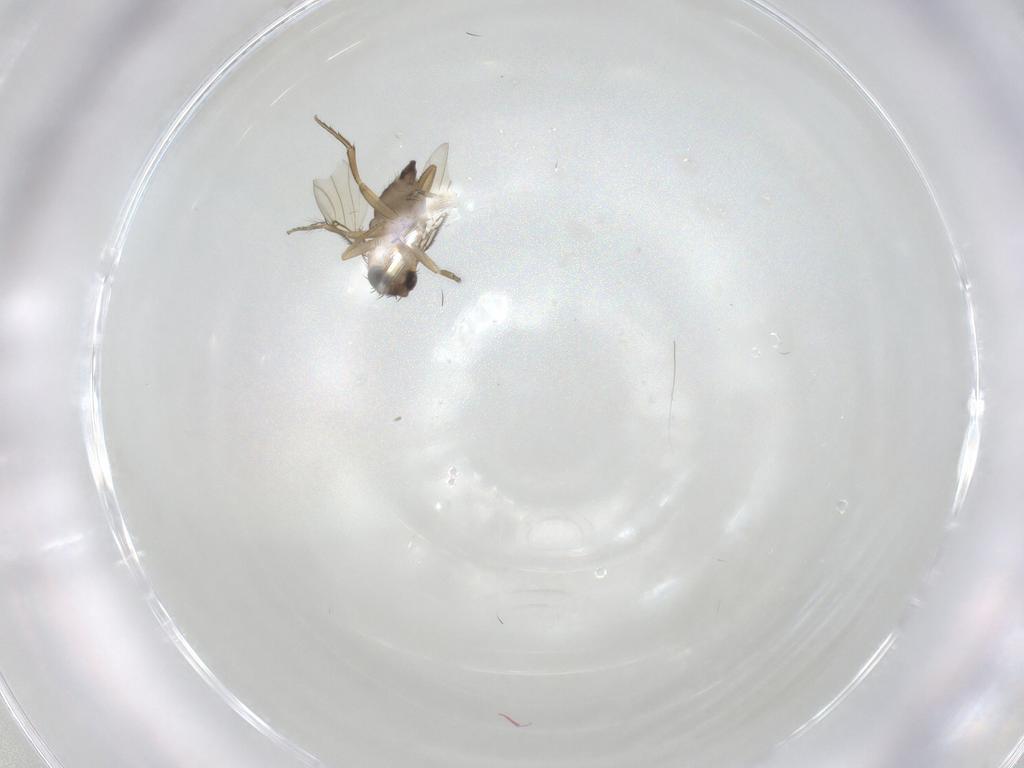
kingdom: Animalia
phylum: Arthropoda
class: Insecta
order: Diptera
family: Phoridae
